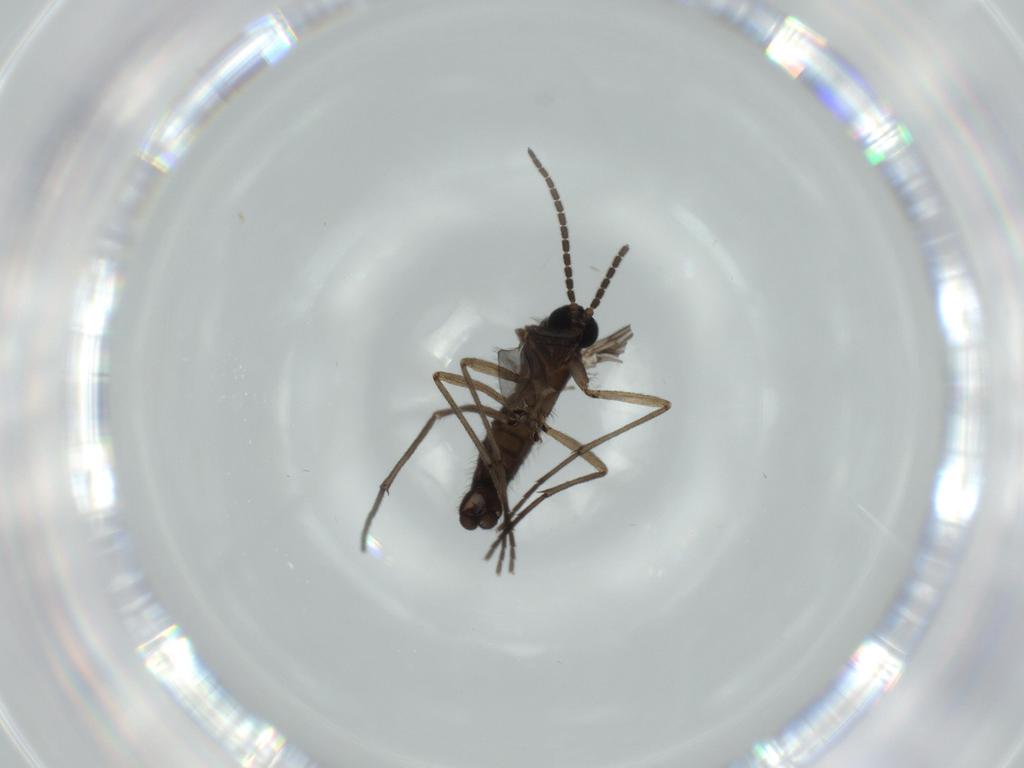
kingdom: Animalia
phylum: Arthropoda
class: Insecta
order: Diptera
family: Sciaridae
